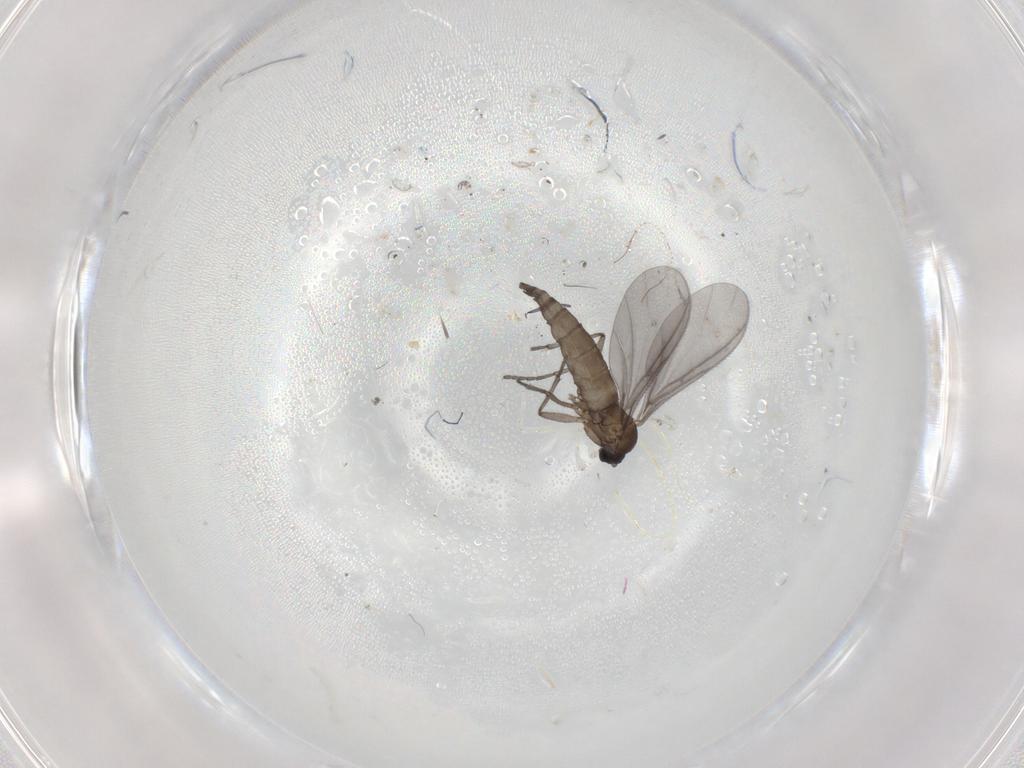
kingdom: Animalia
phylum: Arthropoda
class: Insecta
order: Diptera
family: Sciaridae
